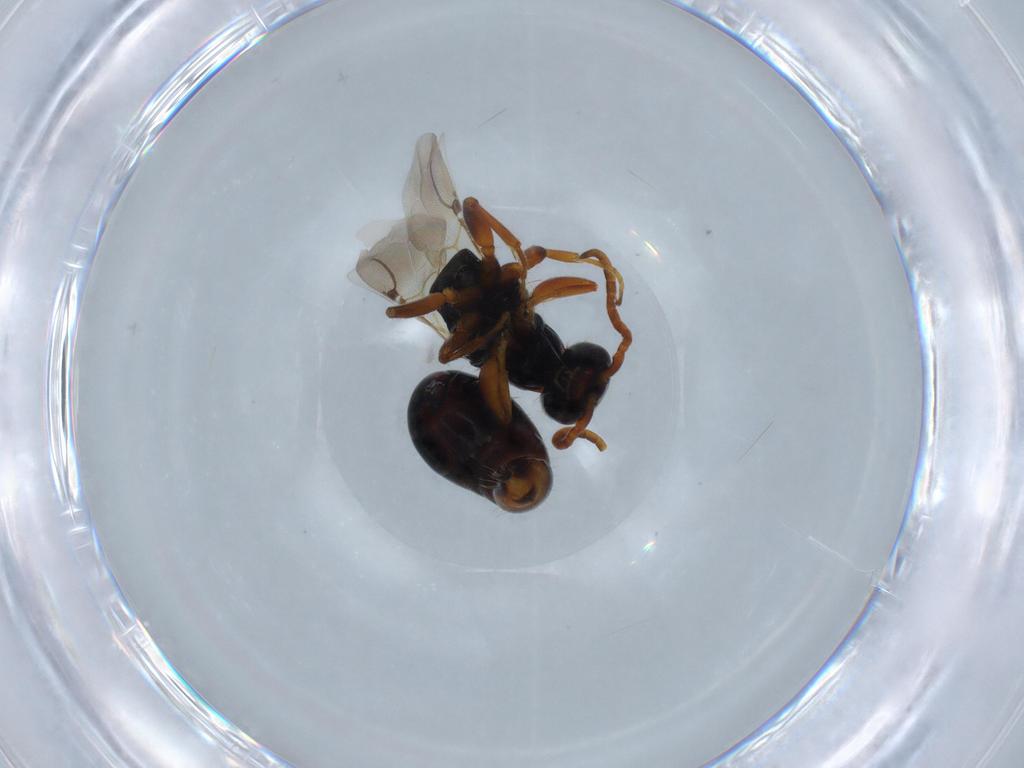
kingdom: Animalia
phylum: Arthropoda
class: Insecta
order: Hymenoptera
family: Bethylidae
